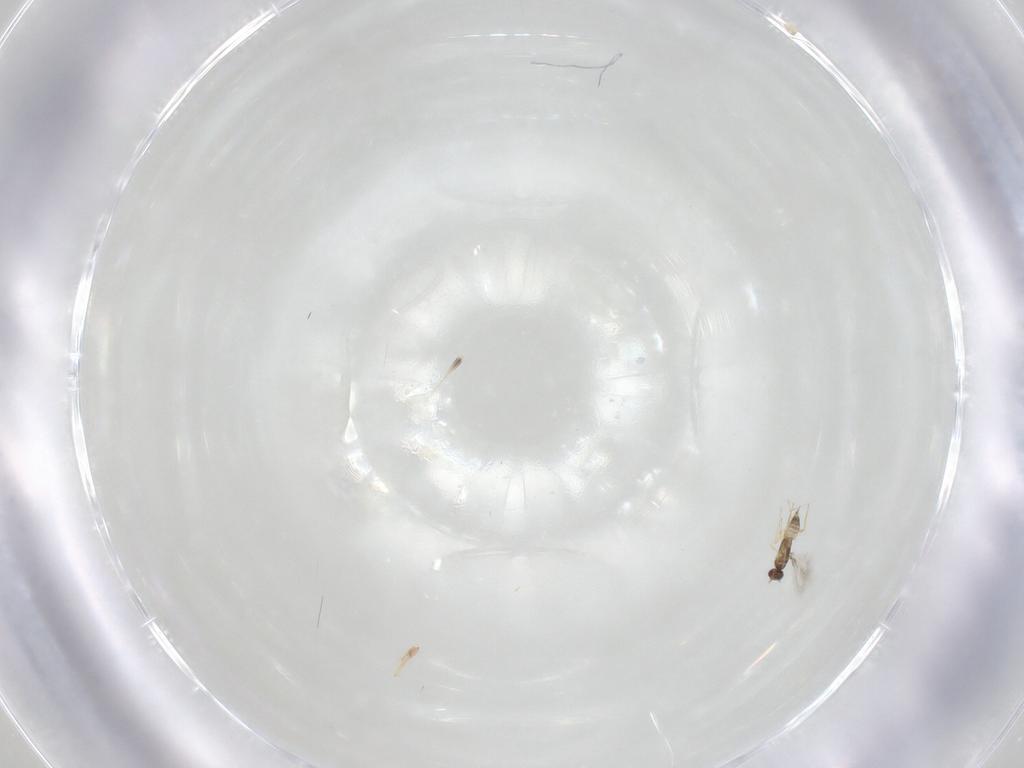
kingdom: Animalia
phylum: Arthropoda
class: Insecta
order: Hymenoptera
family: Mymaridae
